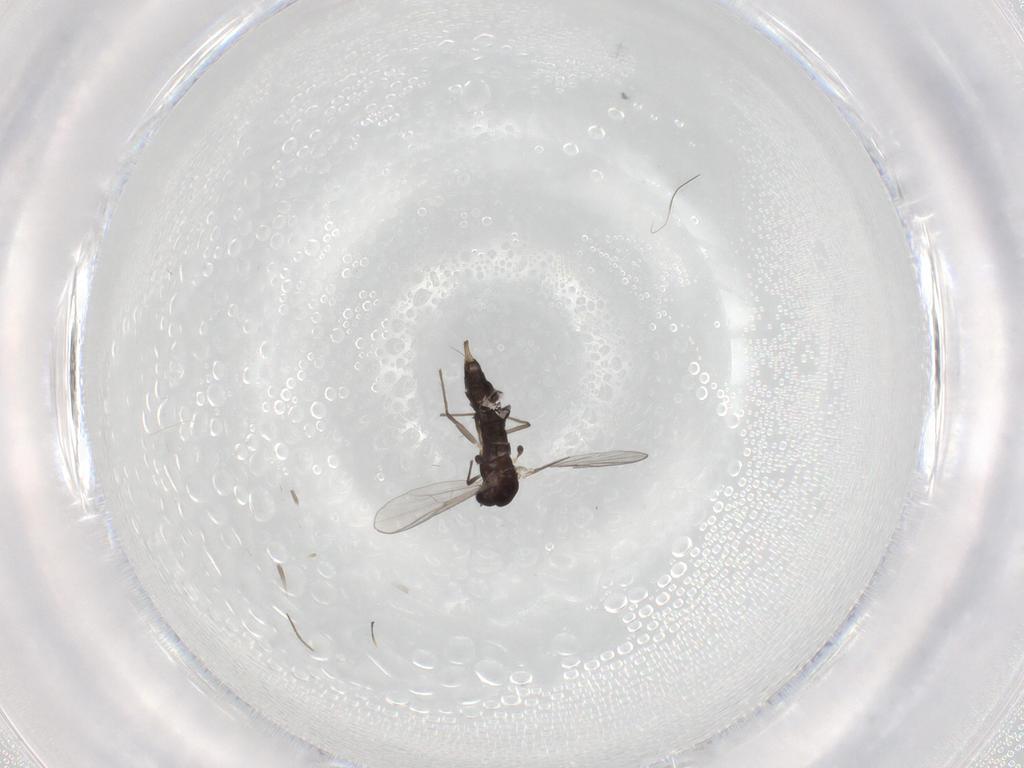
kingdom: Animalia
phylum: Arthropoda
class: Insecta
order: Diptera
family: Chironomidae
